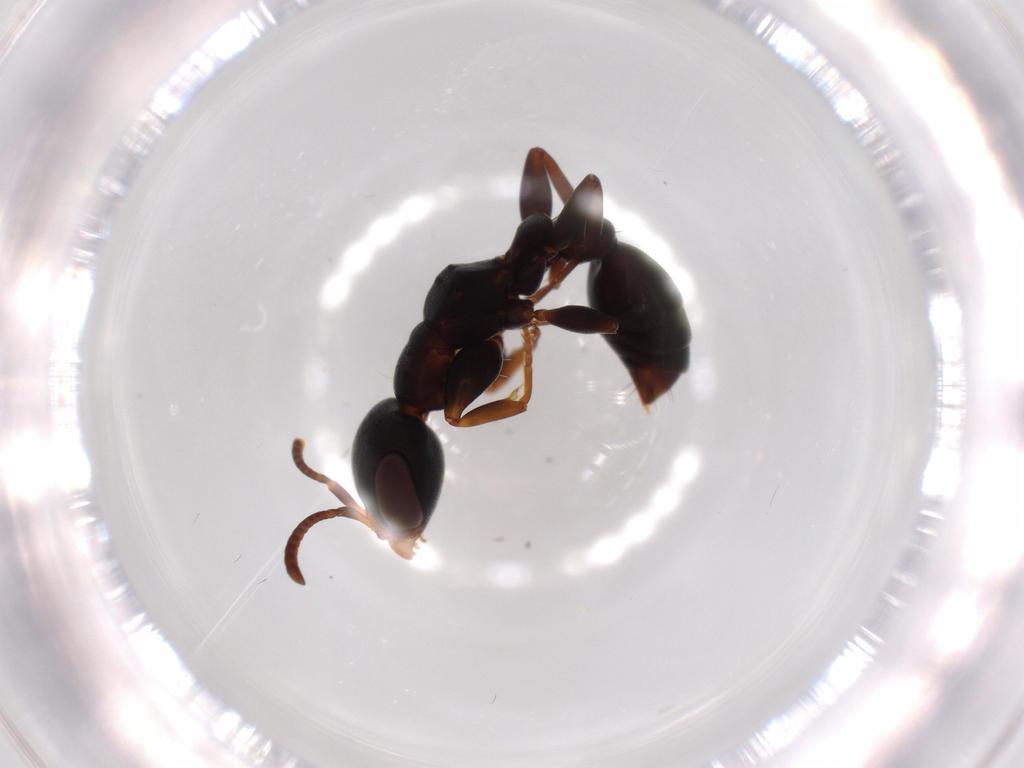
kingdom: Animalia
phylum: Arthropoda
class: Insecta
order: Hymenoptera
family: Formicidae
